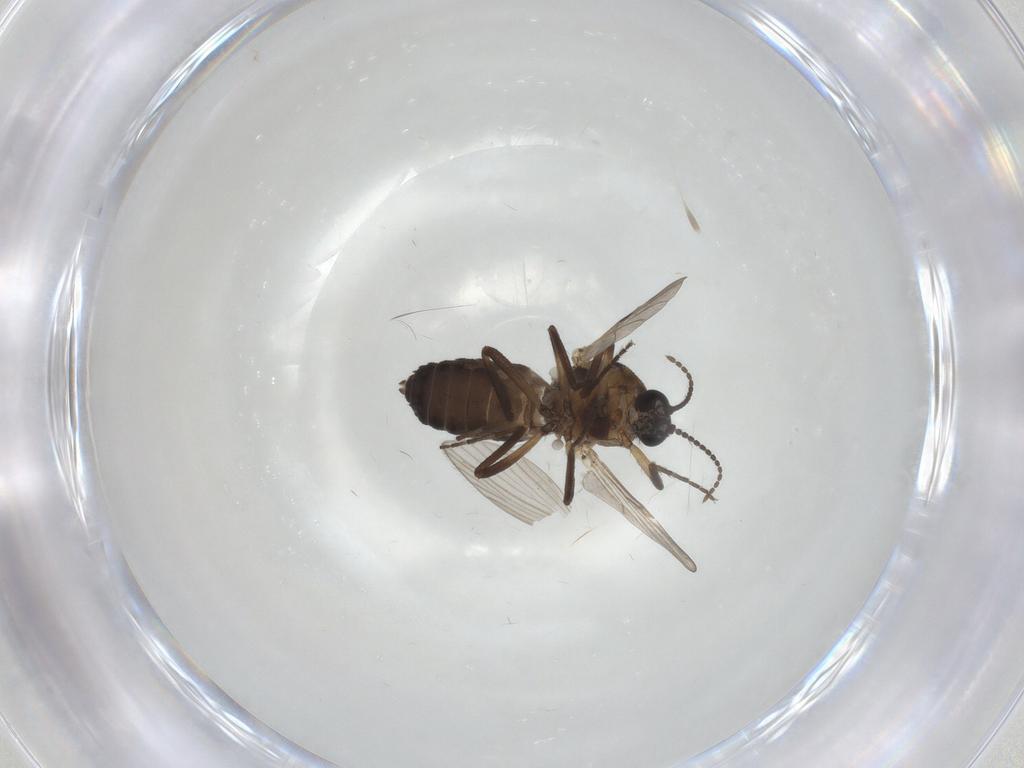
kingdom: Animalia
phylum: Arthropoda
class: Insecta
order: Diptera
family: Ceratopogonidae
